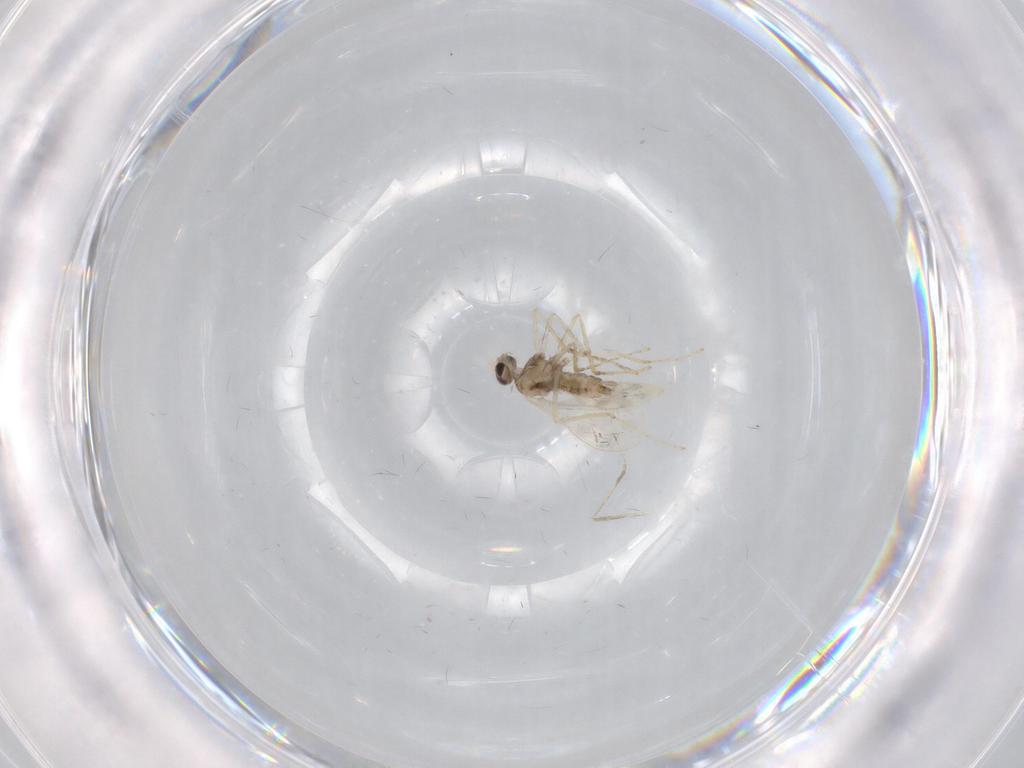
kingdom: Animalia
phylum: Arthropoda
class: Insecta
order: Diptera
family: Cecidomyiidae
